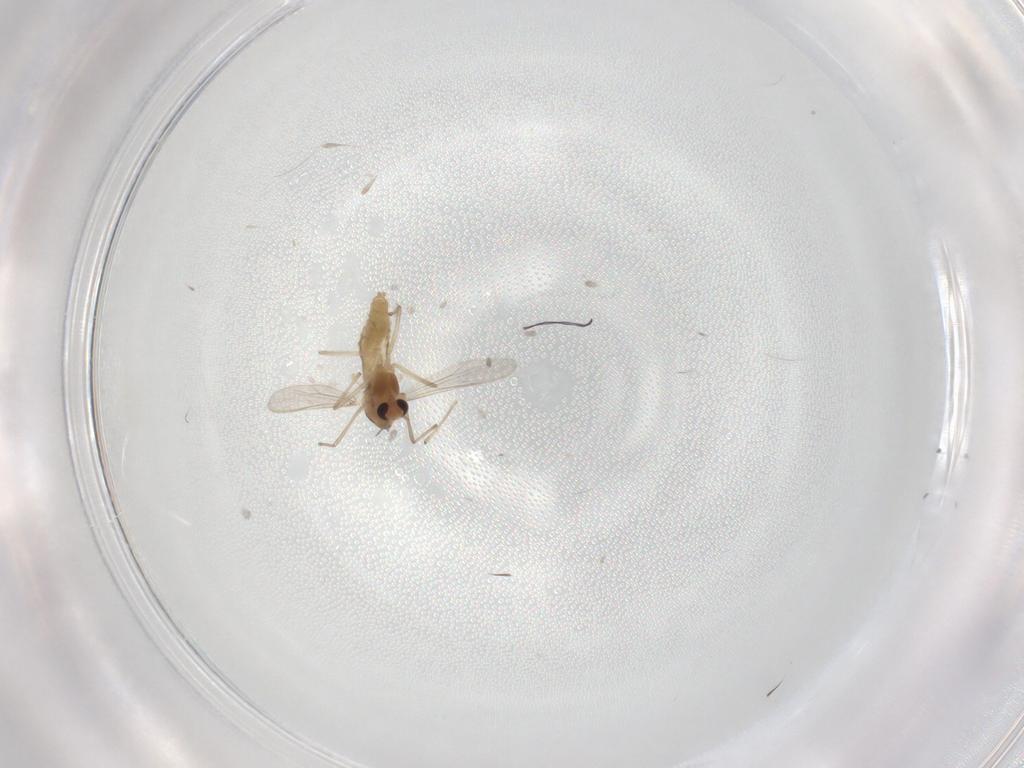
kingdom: Animalia
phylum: Arthropoda
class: Insecta
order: Diptera
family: Chironomidae
